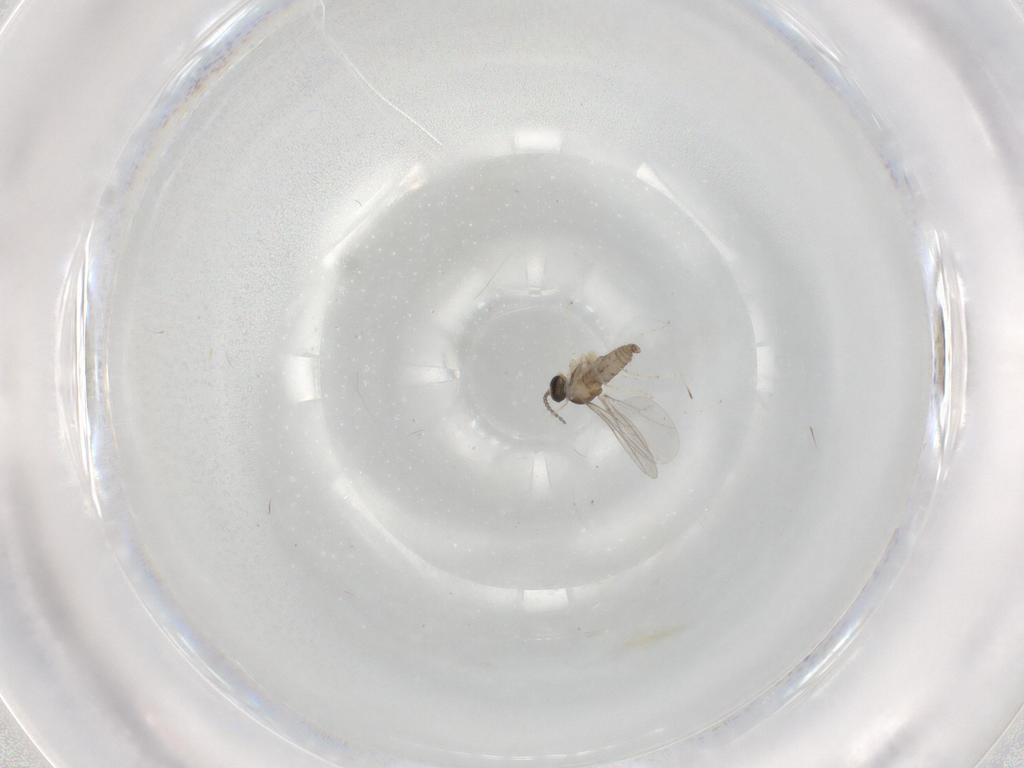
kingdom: Animalia
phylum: Arthropoda
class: Insecta
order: Diptera
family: Cecidomyiidae
